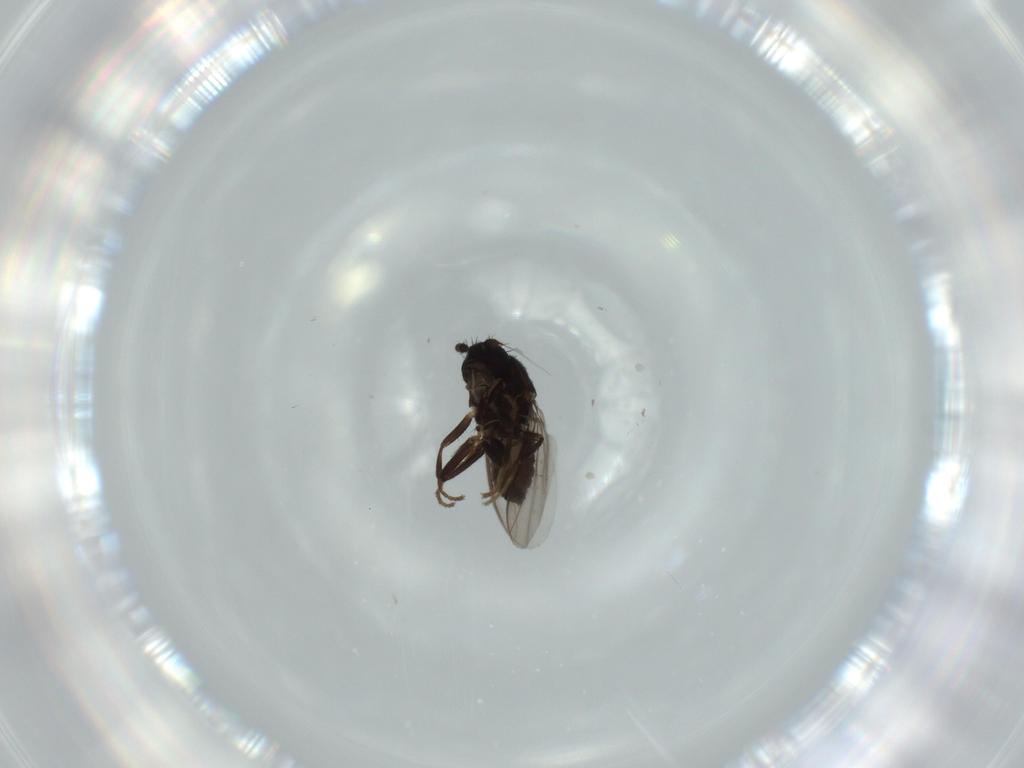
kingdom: Animalia
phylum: Arthropoda
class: Insecta
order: Diptera
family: Sphaeroceridae
